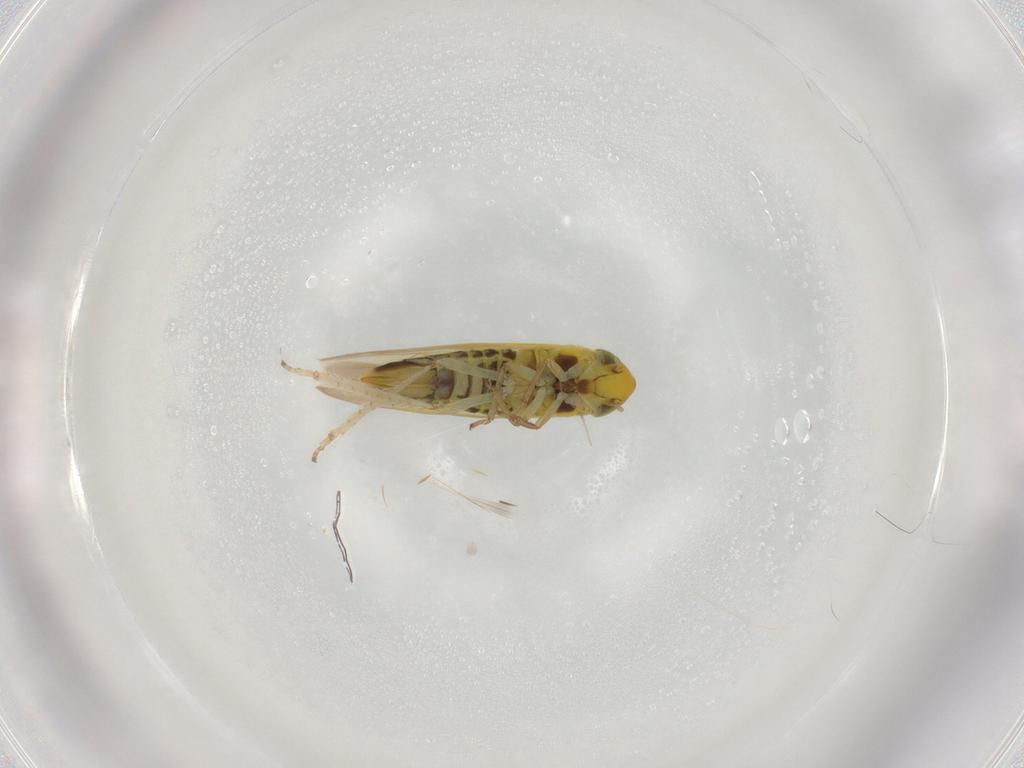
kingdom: Animalia
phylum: Arthropoda
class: Insecta
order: Hemiptera
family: Cicadellidae
